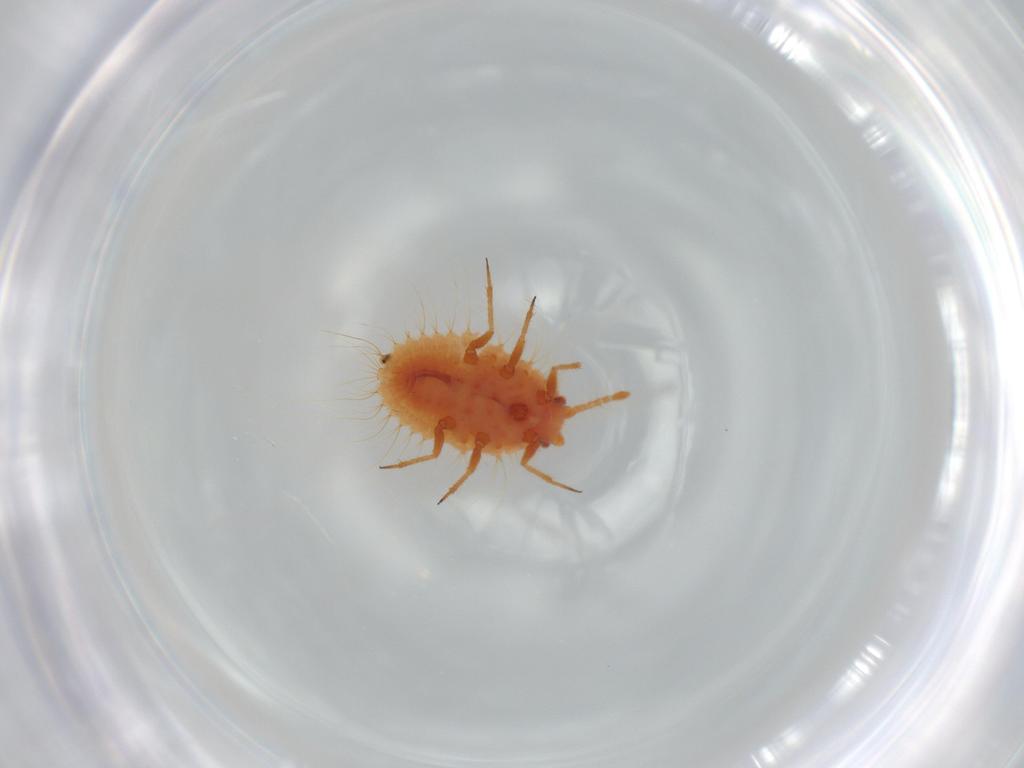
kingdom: Animalia
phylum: Arthropoda
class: Insecta
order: Hemiptera
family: Coccoidea_incertae_sedis
